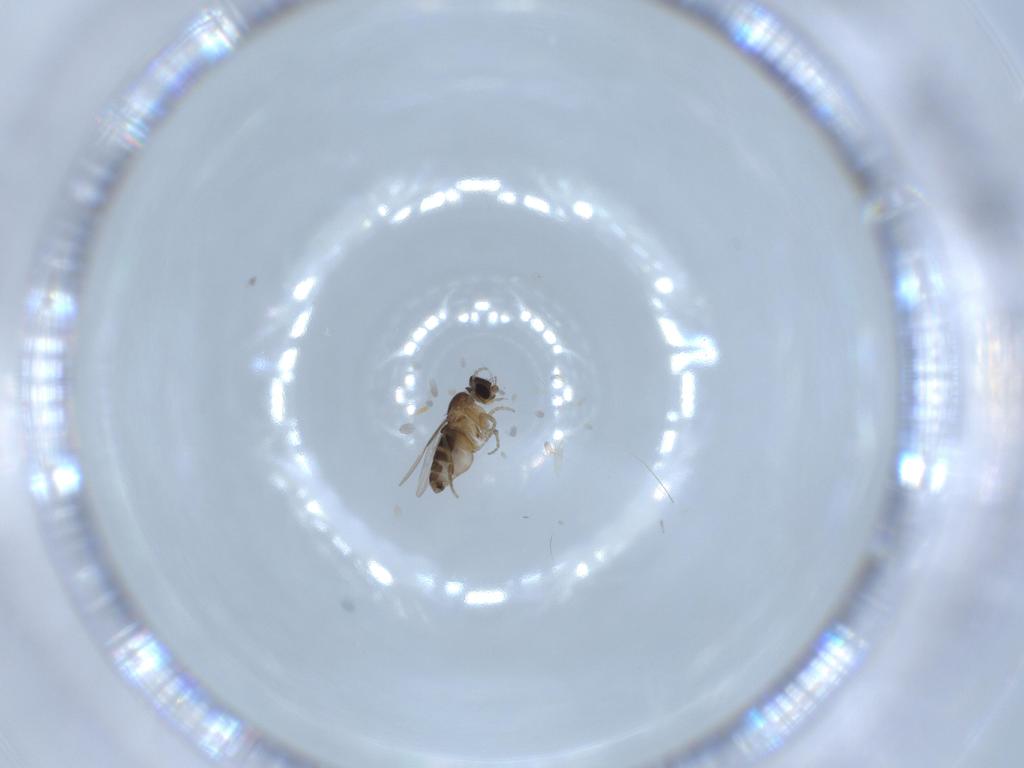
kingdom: Animalia
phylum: Arthropoda
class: Insecta
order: Diptera
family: Phoridae
